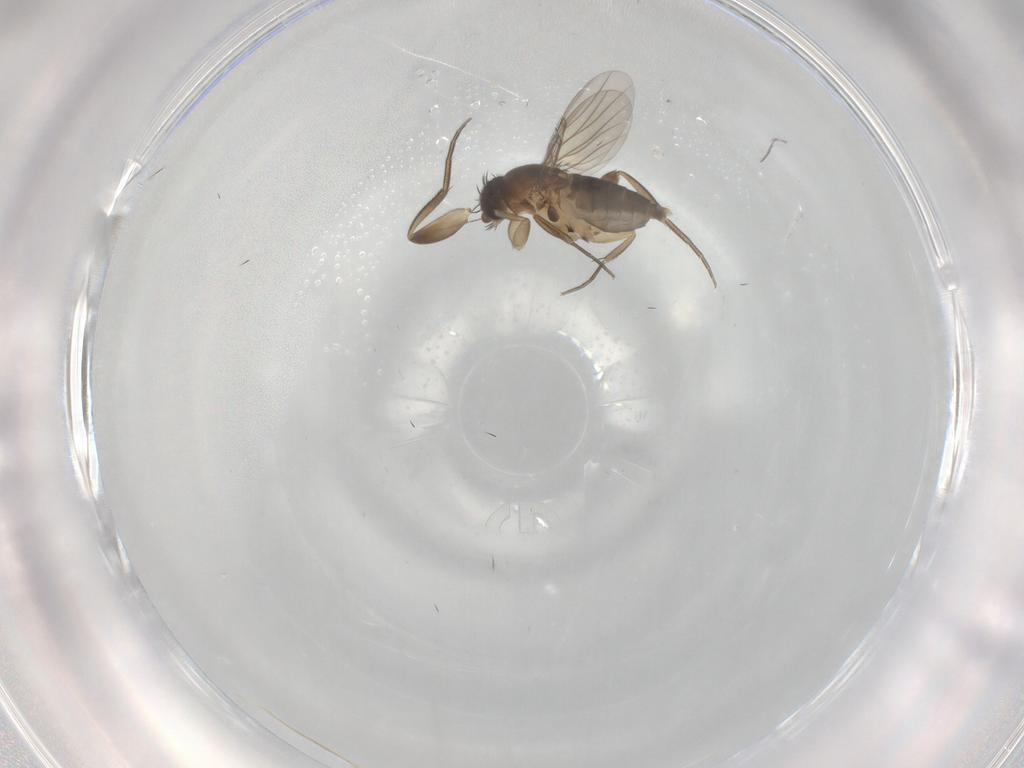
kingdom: Animalia
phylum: Arthropoda
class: Insecta
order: Diptera
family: Phoridae
